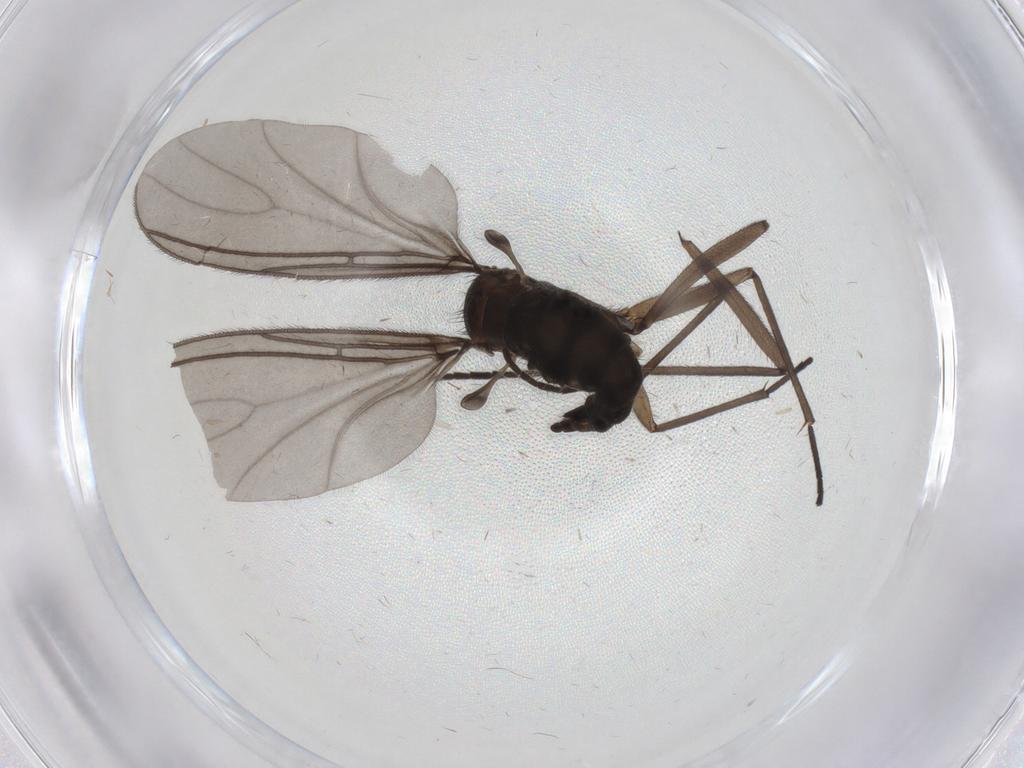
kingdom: Animalia
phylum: Arthropoda
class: Insecta
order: Diptera
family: Sciaridae
